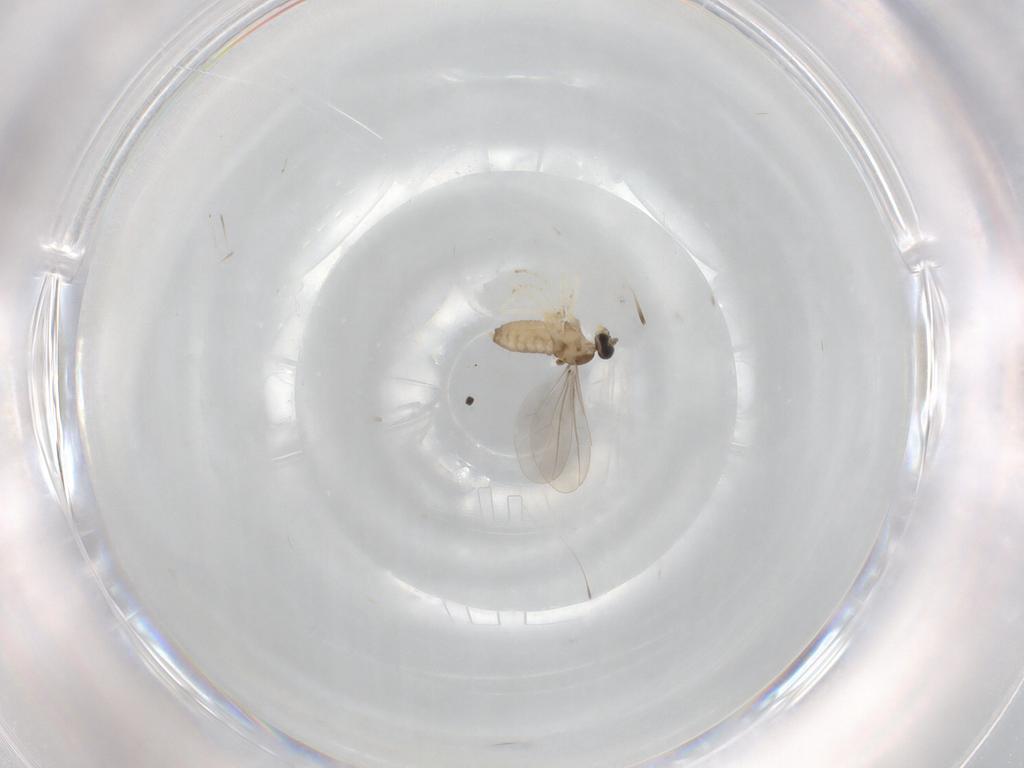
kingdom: Animalia
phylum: Arthropoda
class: Insecta
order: Diptera
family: Cecidomyiidae
